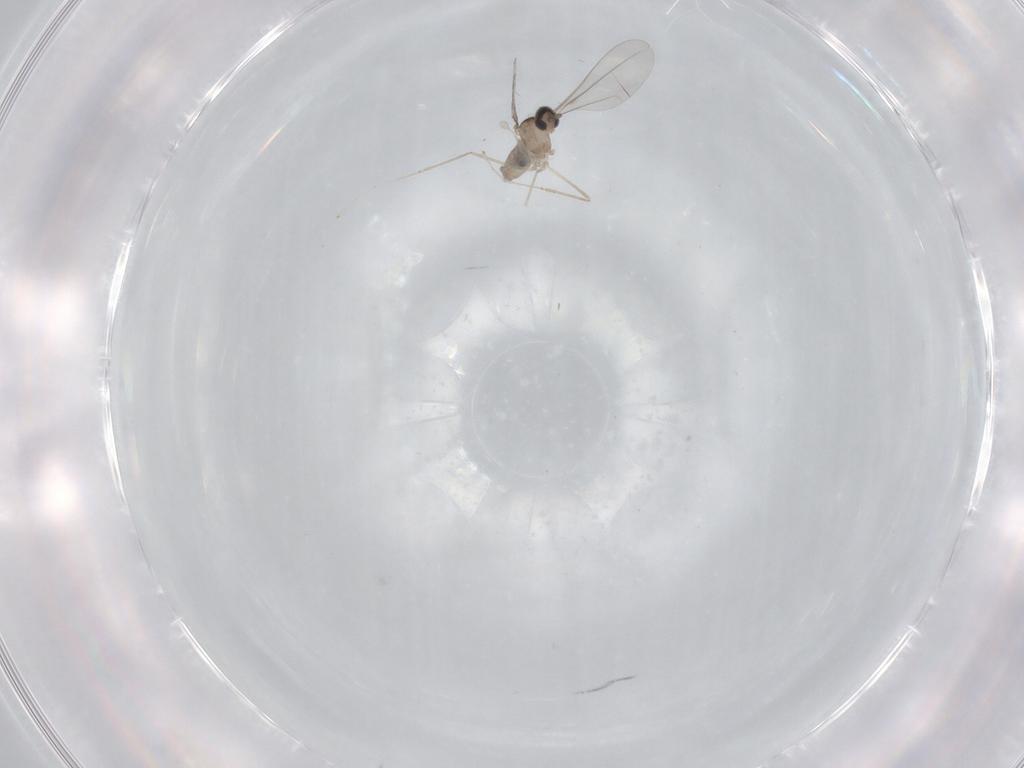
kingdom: Animalia
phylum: Arthropoda
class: Insecta
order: Diptera
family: Cecidomyiidae
